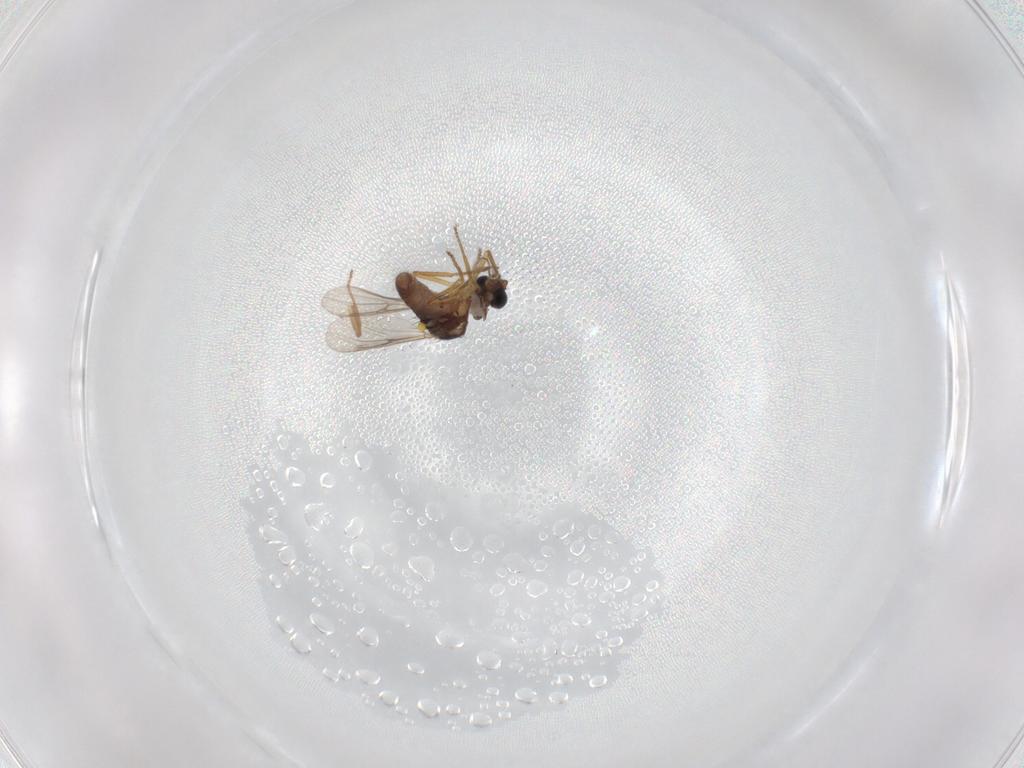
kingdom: Animalia
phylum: Arthropoda
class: Insecta
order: Diptera
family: Ceratopogonidae
